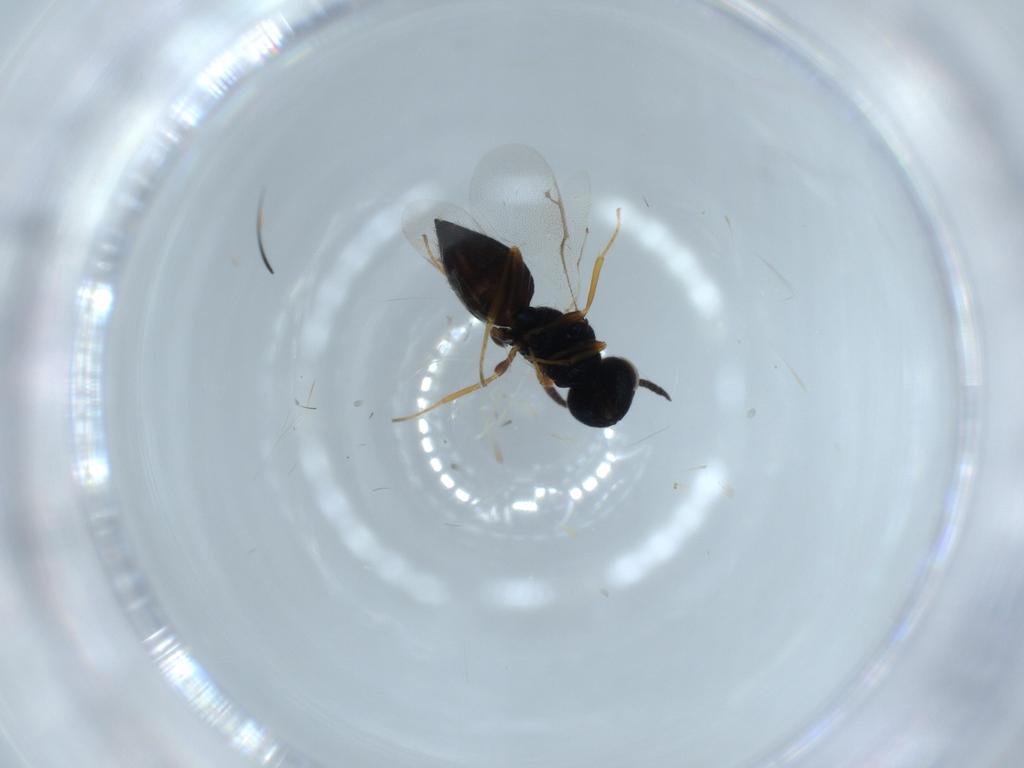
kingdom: Animalia
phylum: Arthropoda
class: Insecta
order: Hymenoptera
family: Pteromalidae
